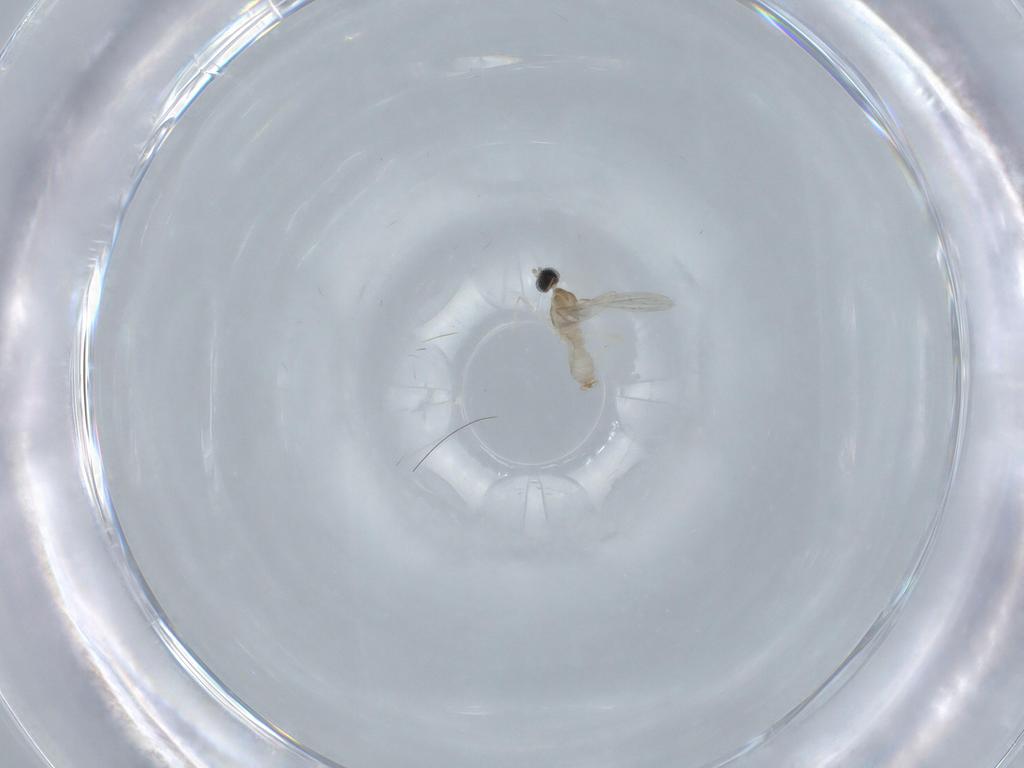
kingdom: Animalia
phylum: Arthropoda
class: Insecta
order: Diptera
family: Cecidomyiidae
